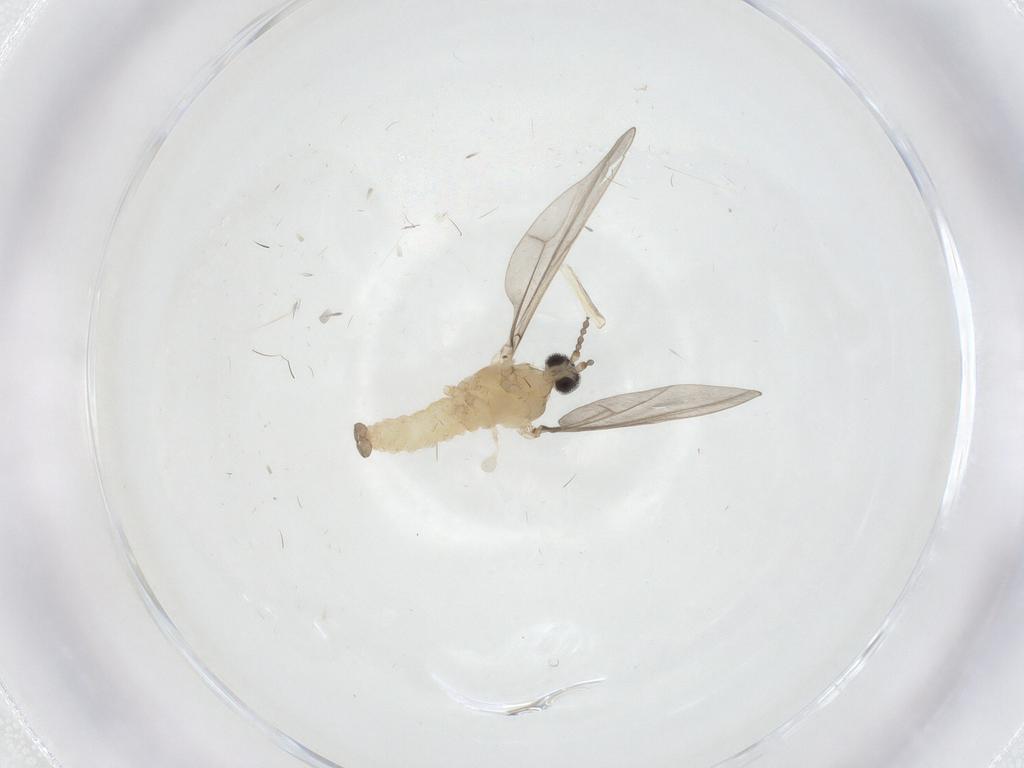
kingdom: Animalia
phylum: Arthropoda
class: Insecta
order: Diptera
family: Cecidomyiidae
